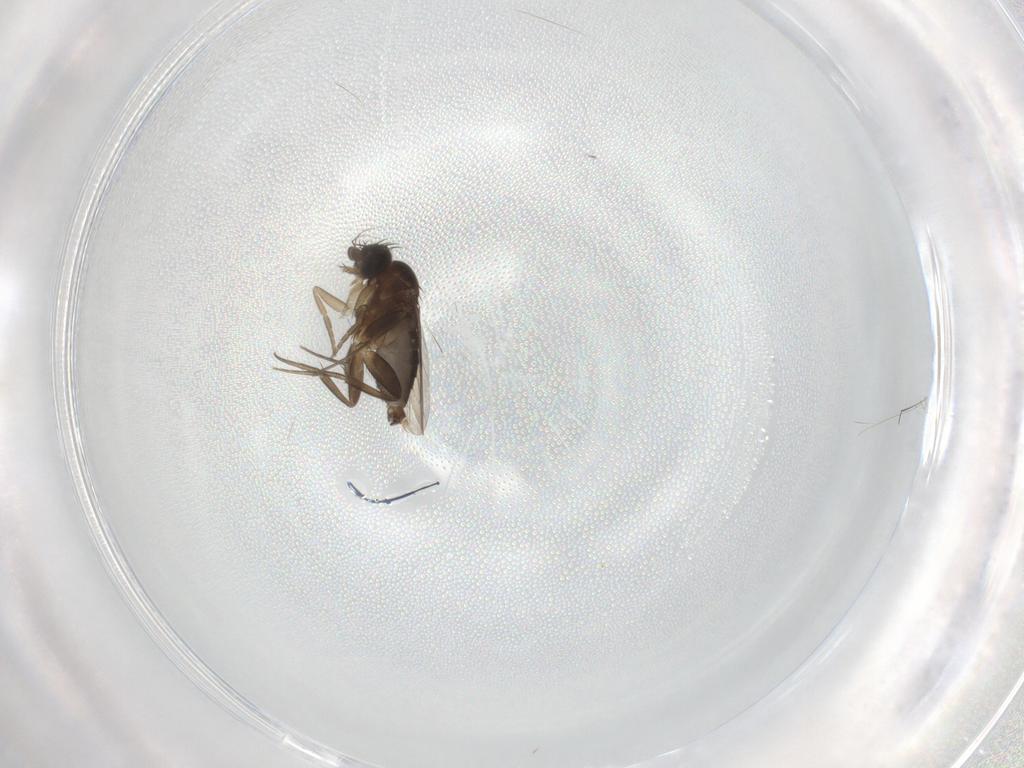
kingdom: Animalia
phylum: Arthropoda
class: Insecta
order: Diptera
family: Phoridae
